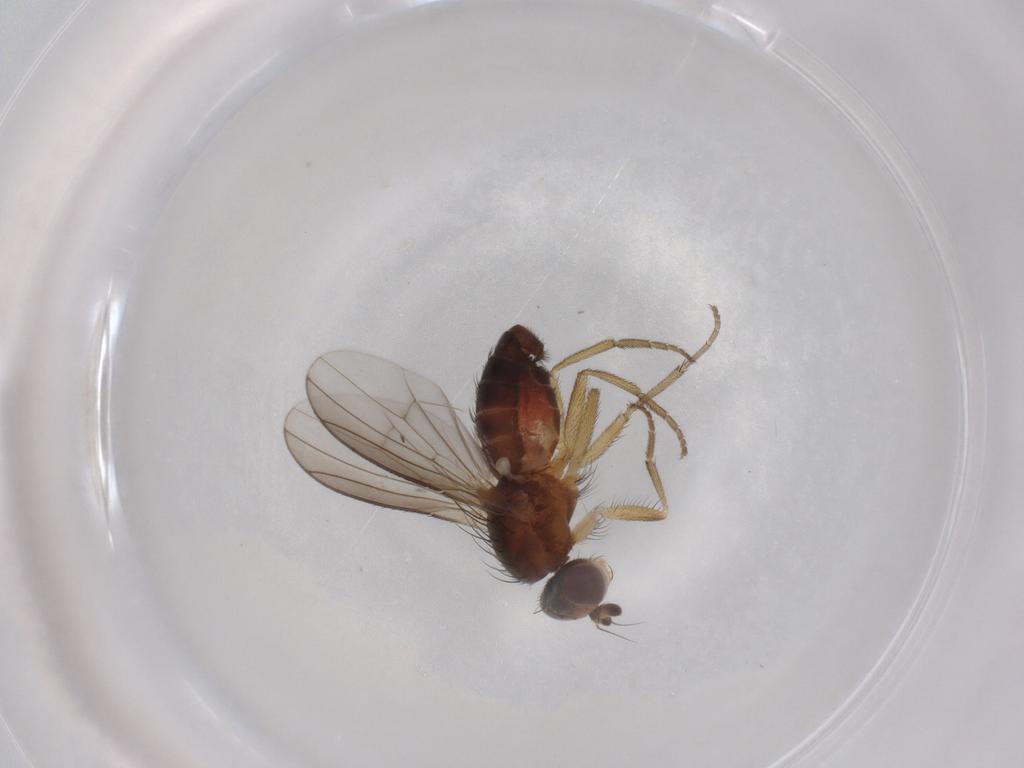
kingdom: Animalia
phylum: Arthropoda
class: Insecta
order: Diptera
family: Heleomyzidae
